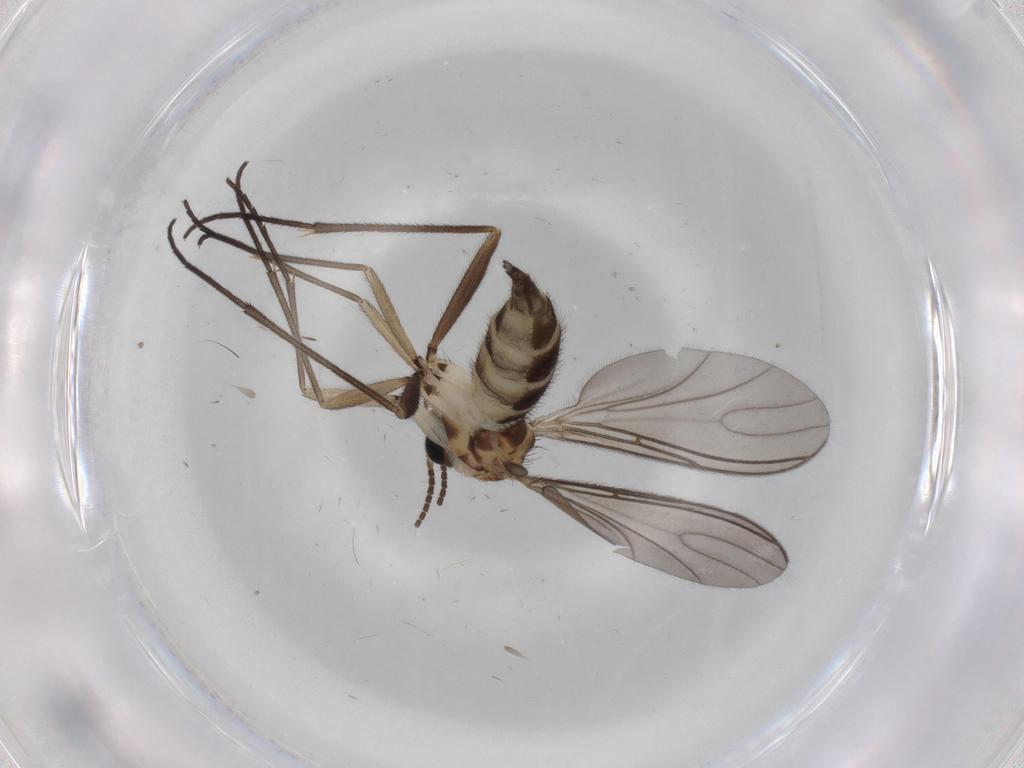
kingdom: Animalia
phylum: Arthropoda
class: Insecta
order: Diptera
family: Sciaridae
